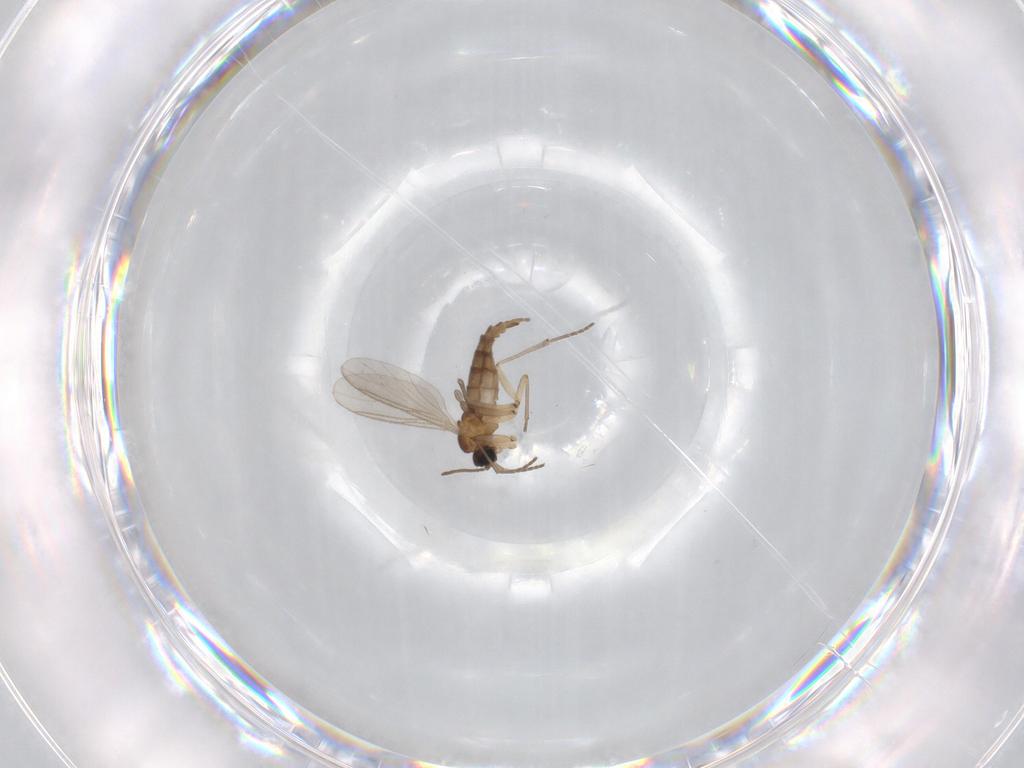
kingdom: Animalia
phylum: Arthropoda
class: Insecta
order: Diptera
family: Sciaridae
